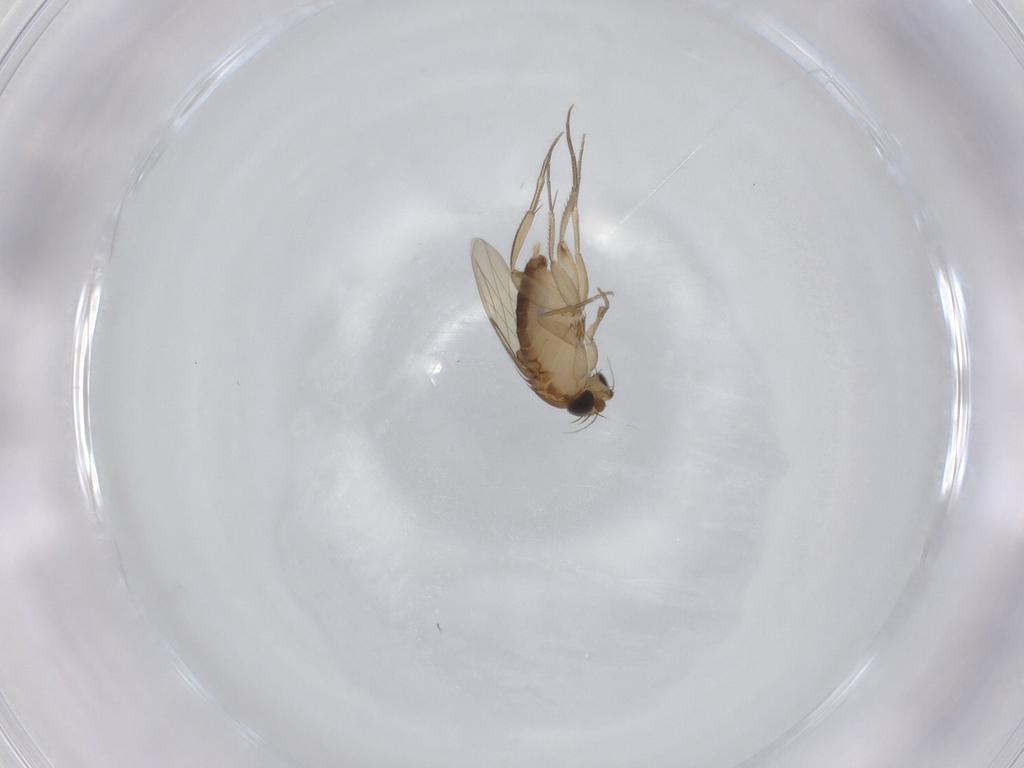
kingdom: Animalia
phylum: Arthropoda
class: Insecta
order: Diptera
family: Phoridae
